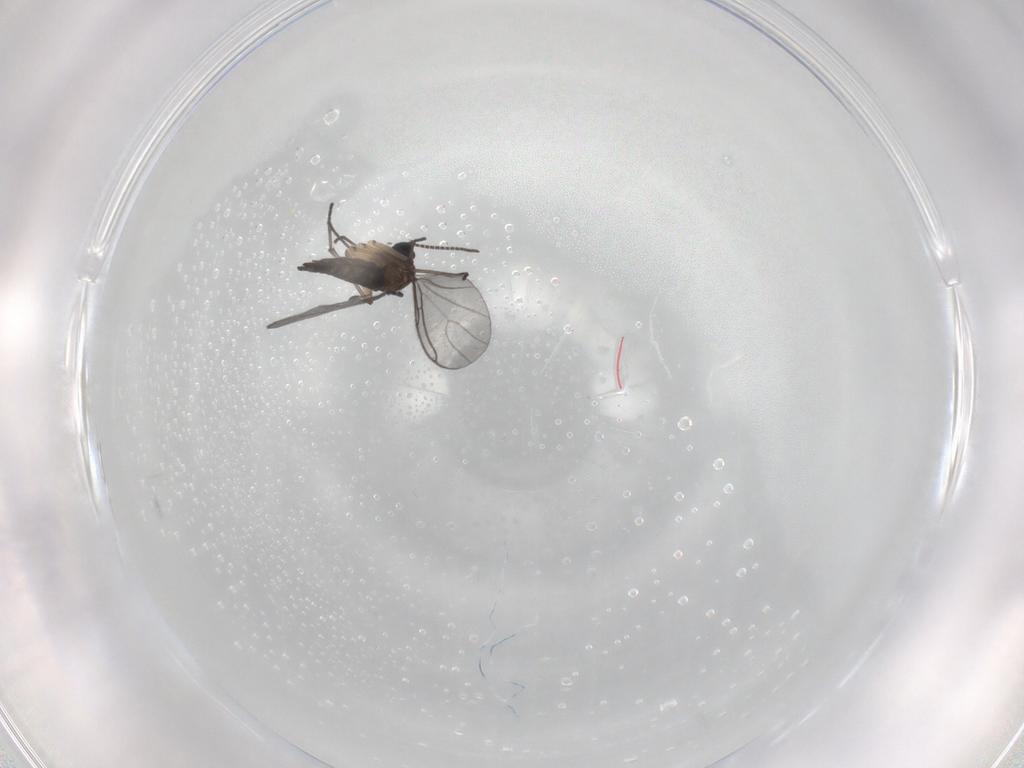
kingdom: Animalia
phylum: Arthropoda
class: Insecta
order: Diptera
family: Sciaridae
